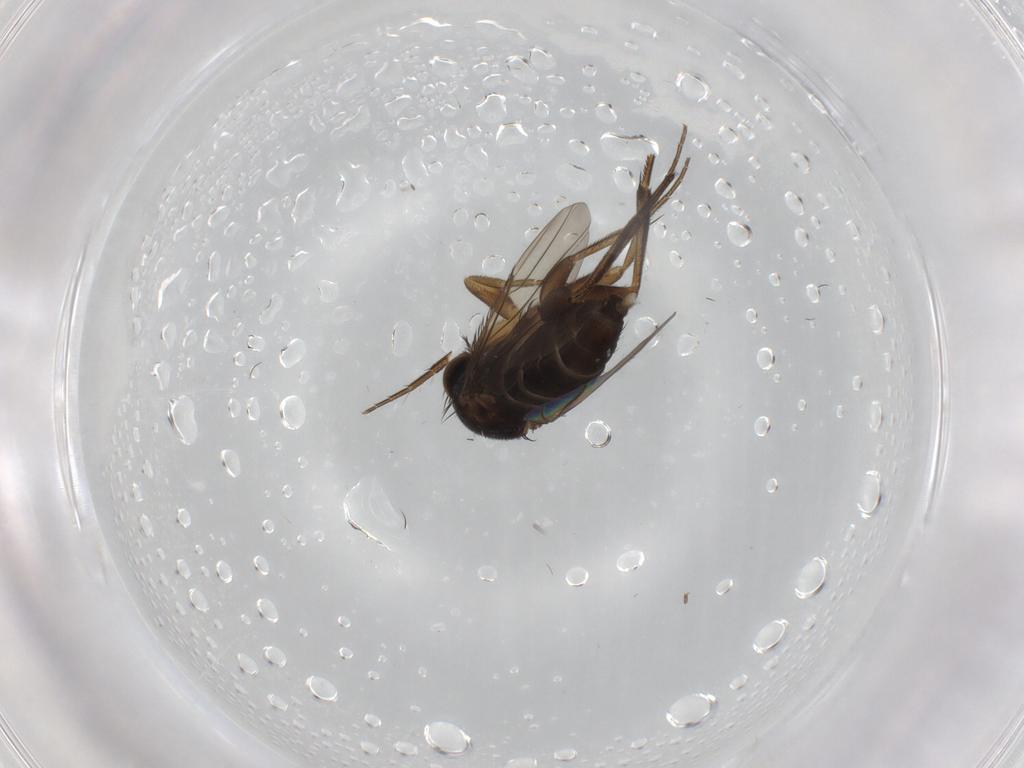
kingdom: Animalia
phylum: Arthropoda
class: Insecta
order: Diptera
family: Phoridae
